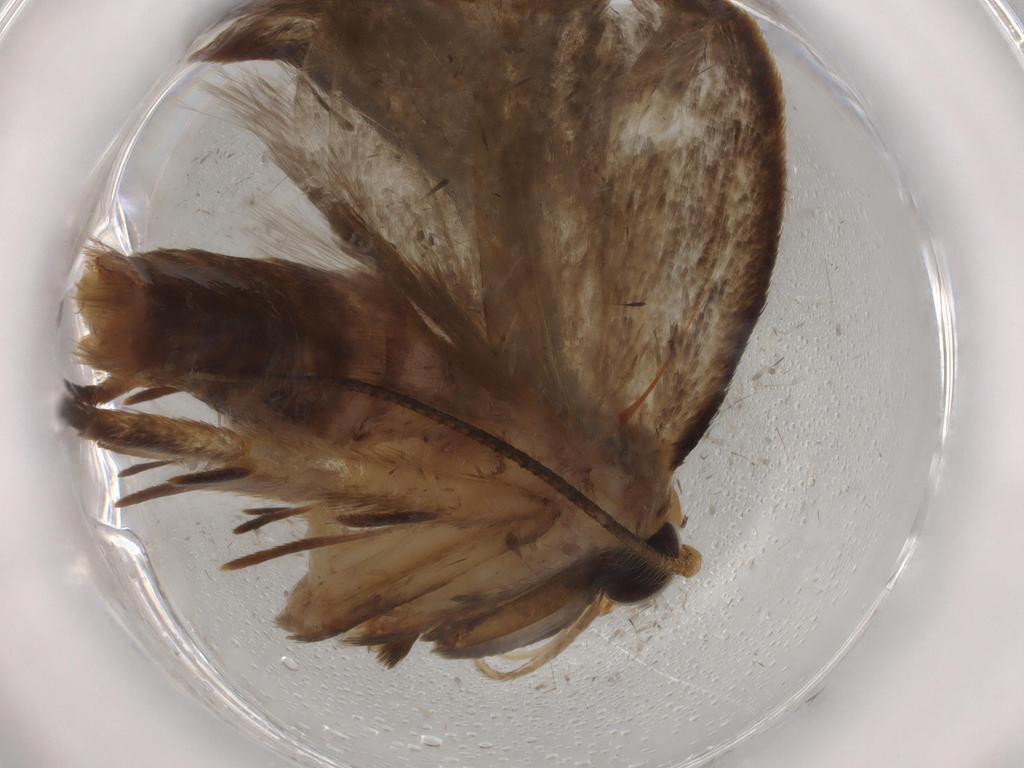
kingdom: Animalia
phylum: Arthropoda
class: Insecta
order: Lepidoptera
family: Oecophoridae
